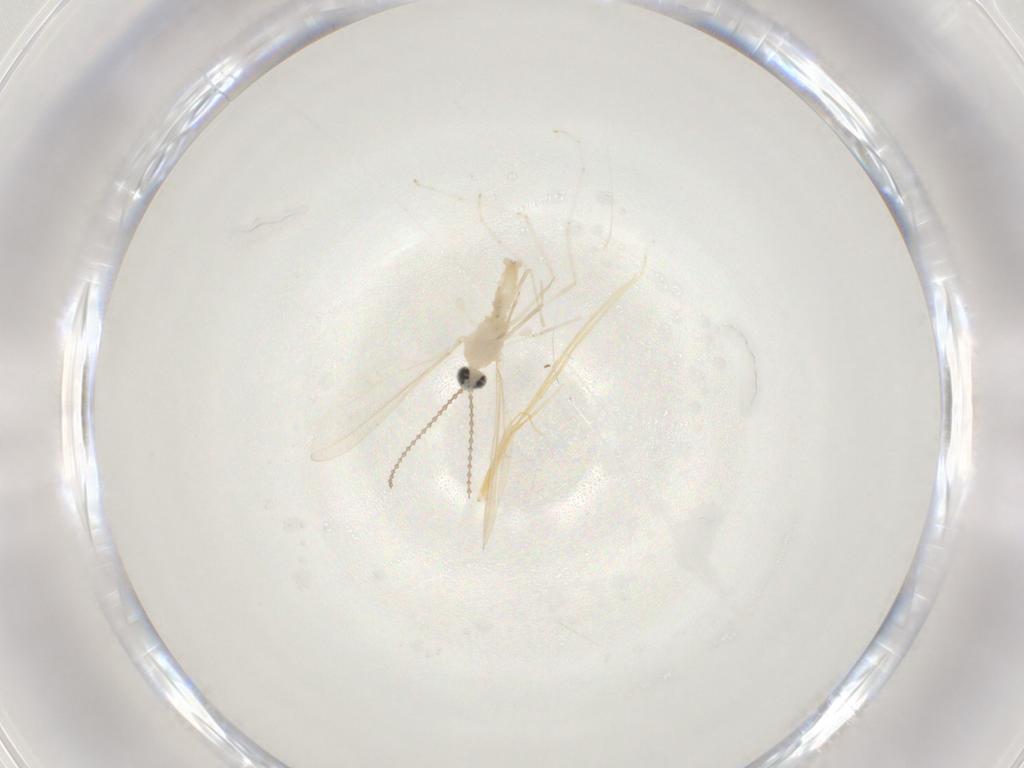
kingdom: Animalia
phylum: Arthropoda
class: Insecta
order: Diptera
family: Cecidomyiidae
